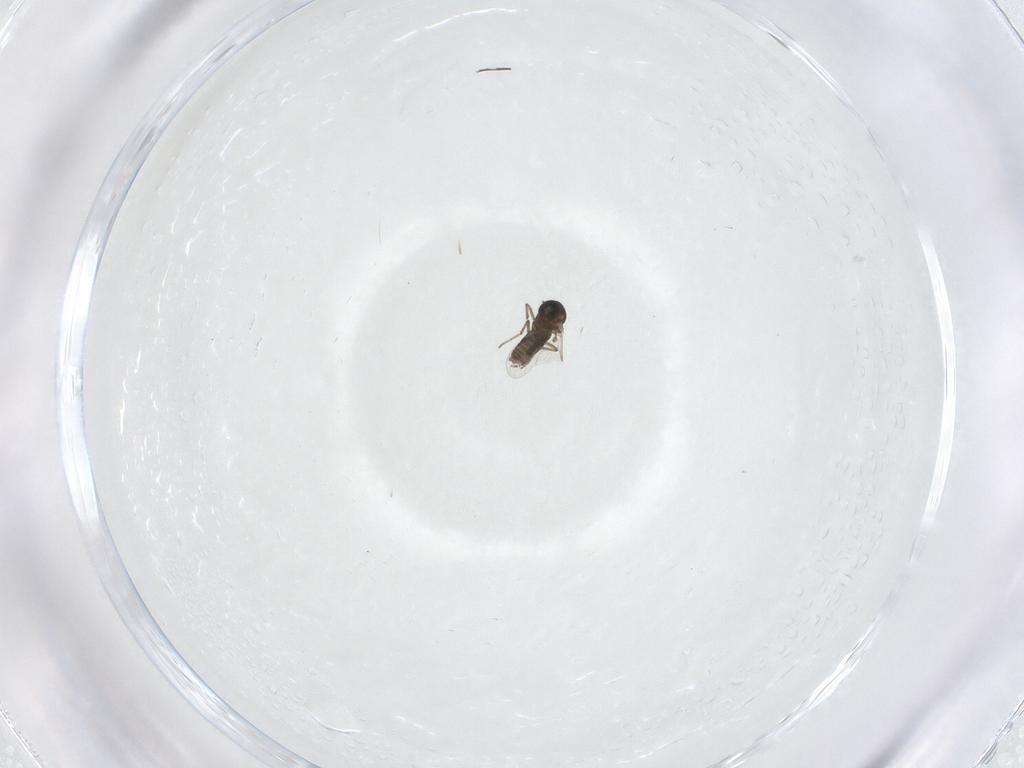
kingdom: Animalia
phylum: Arthropoda
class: Insecta
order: Diptera
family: Ceratopogonidae
